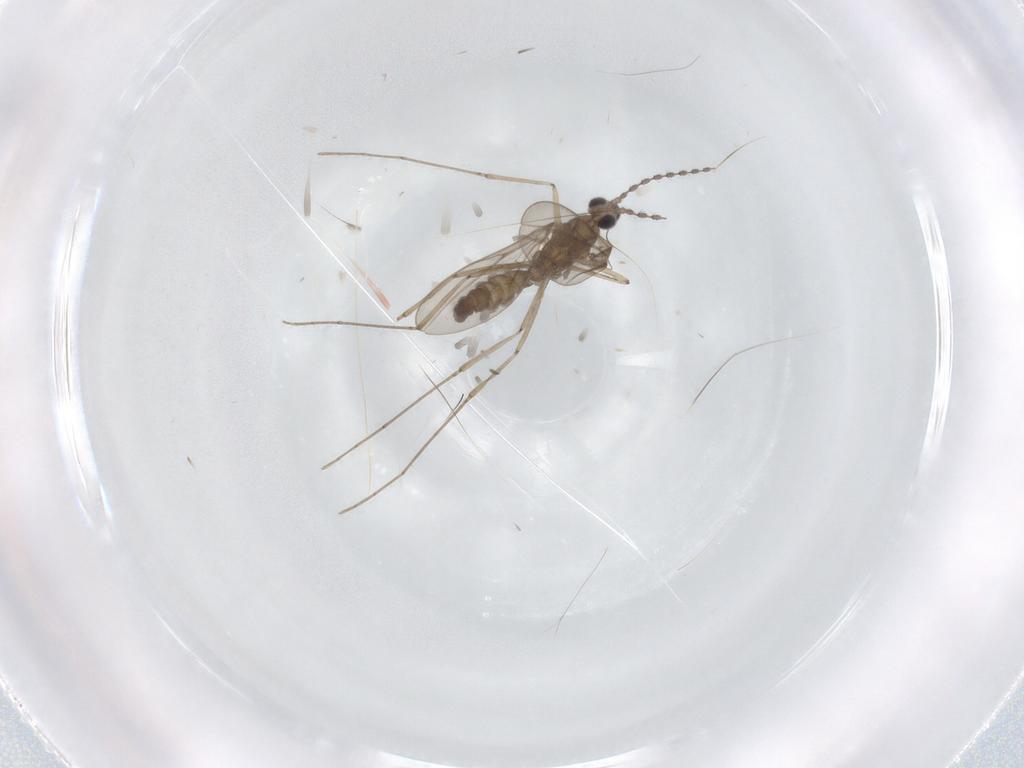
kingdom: Animalia
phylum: Arthropoda
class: Insecta
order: Diptera
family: Cecidomyiidae
